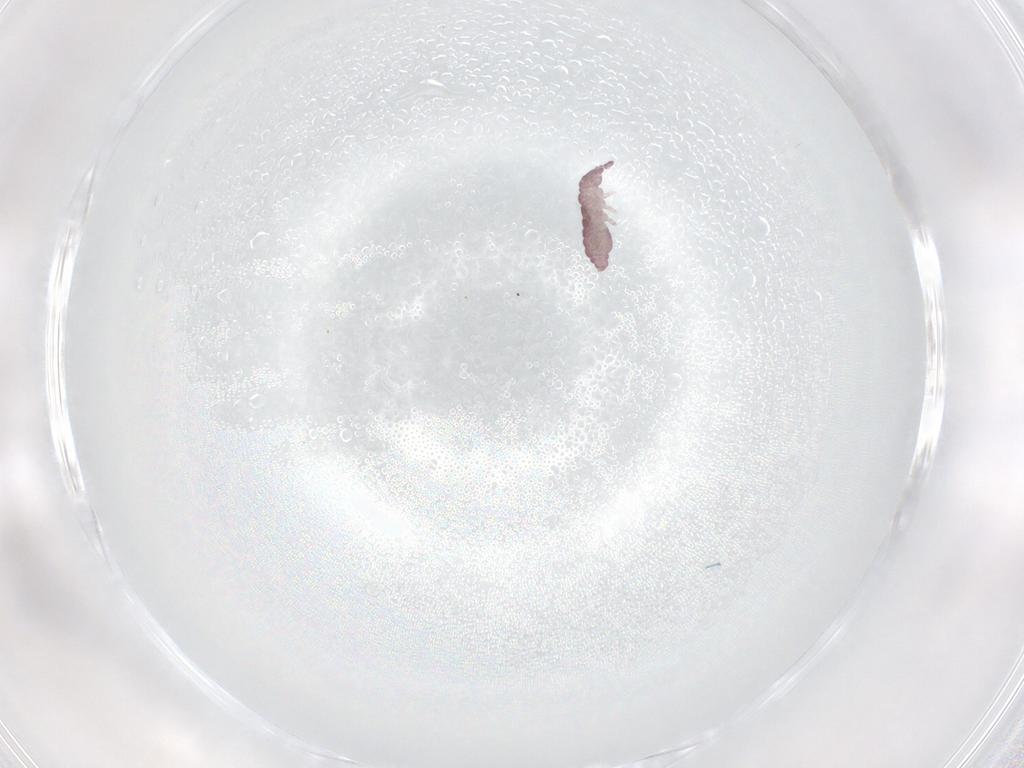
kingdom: Animalia
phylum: Arthropoda
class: Collembola
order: Poduromorpha
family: Hypogastruridae
